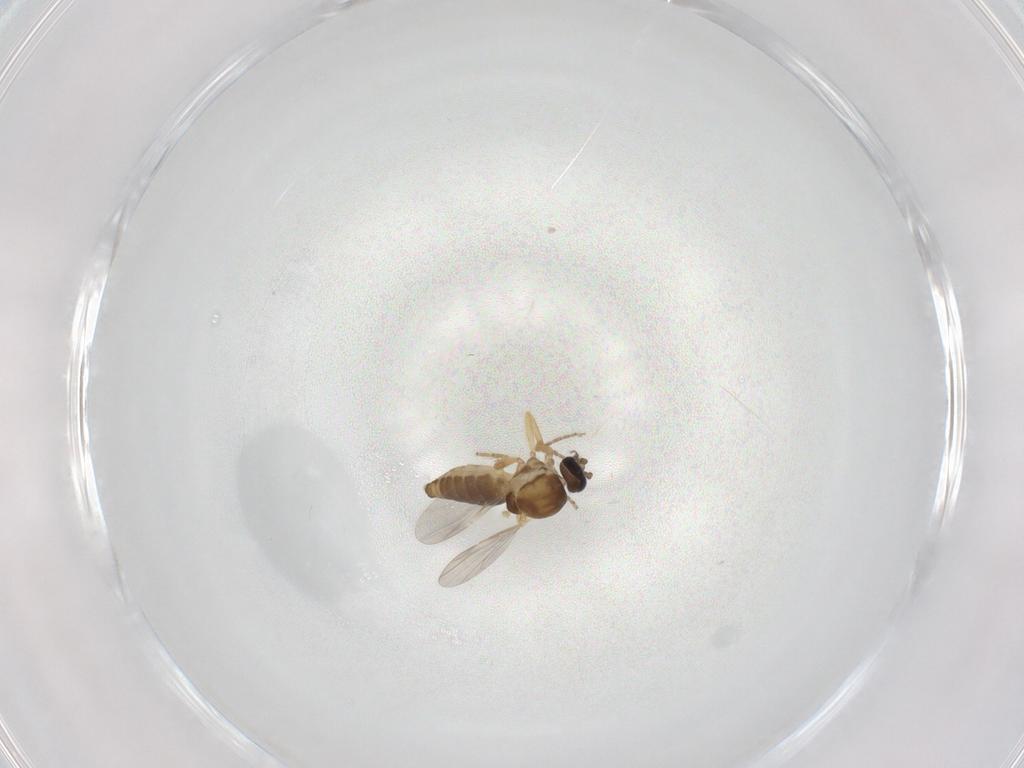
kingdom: Animalia
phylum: Arthropoda
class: Insecta
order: Diptera
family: Ceratopogonidae
